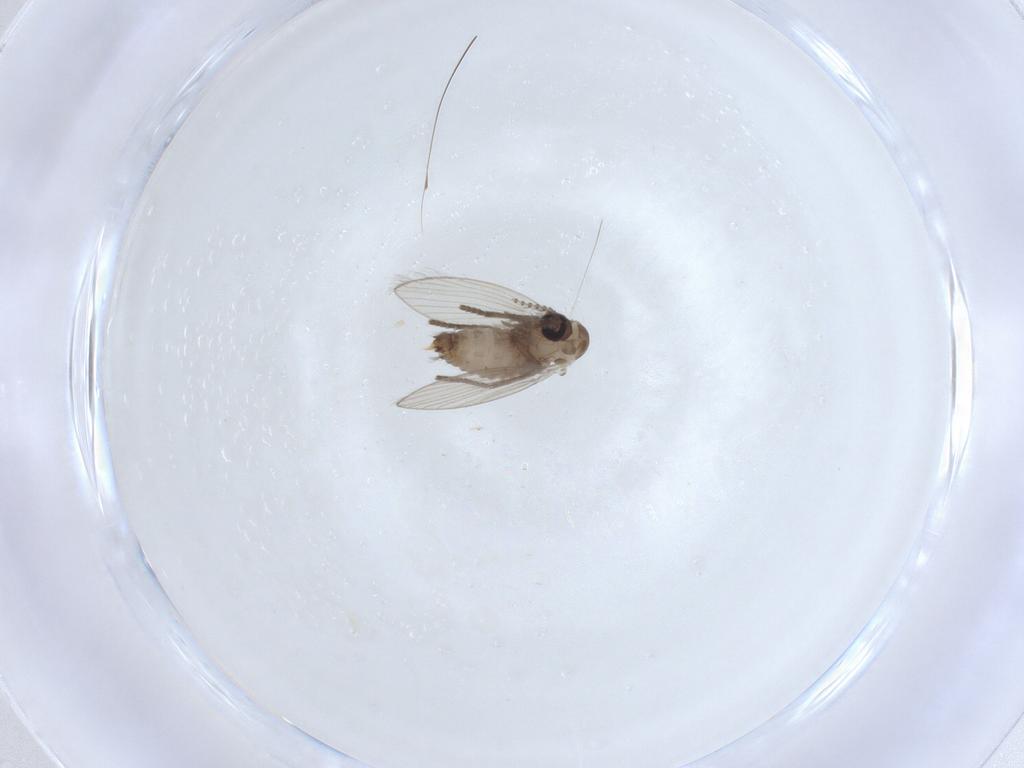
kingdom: Animalia
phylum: Arthropoda
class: Insecta
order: Diptera
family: Psychodidae
